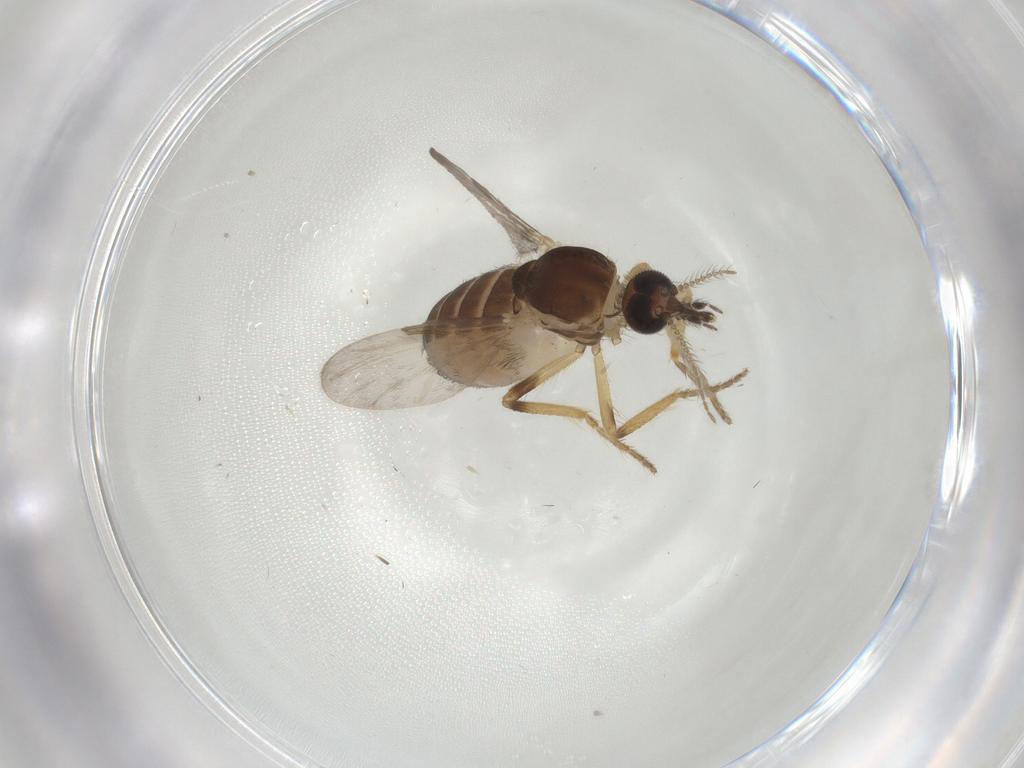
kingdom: Animalia
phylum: Arthropoda
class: Insecta
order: Diptera
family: Ceratopogonidae
